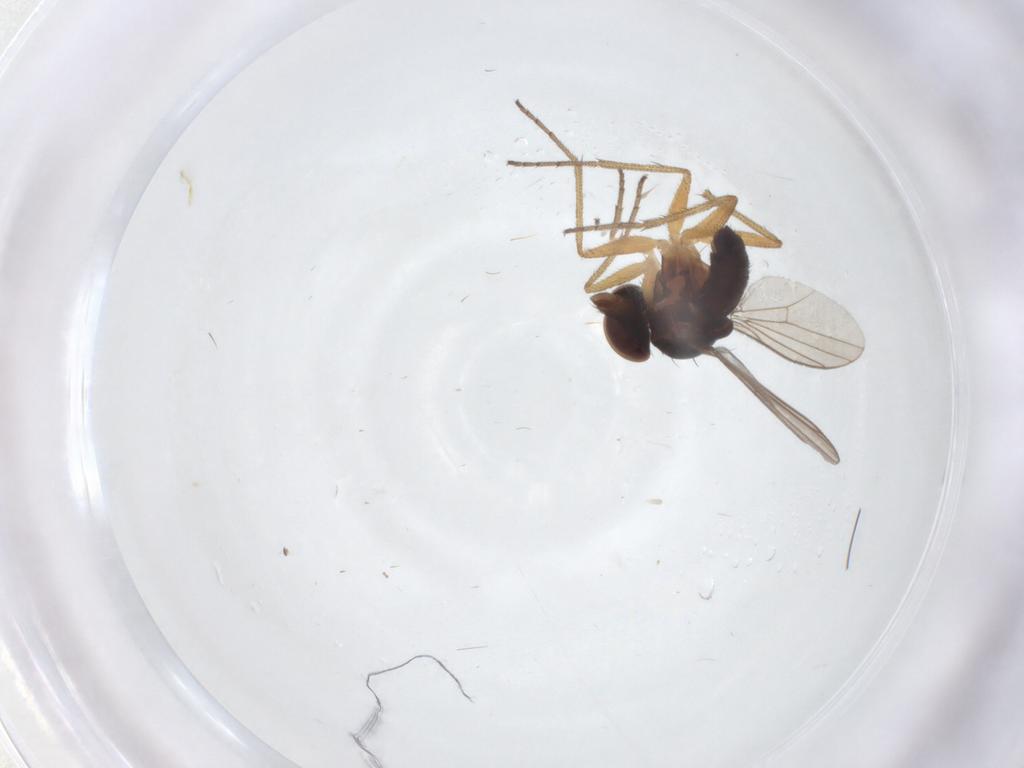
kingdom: Animalia
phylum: Arthropoda
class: Insecta
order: Diptera
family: Dolichopodidae
